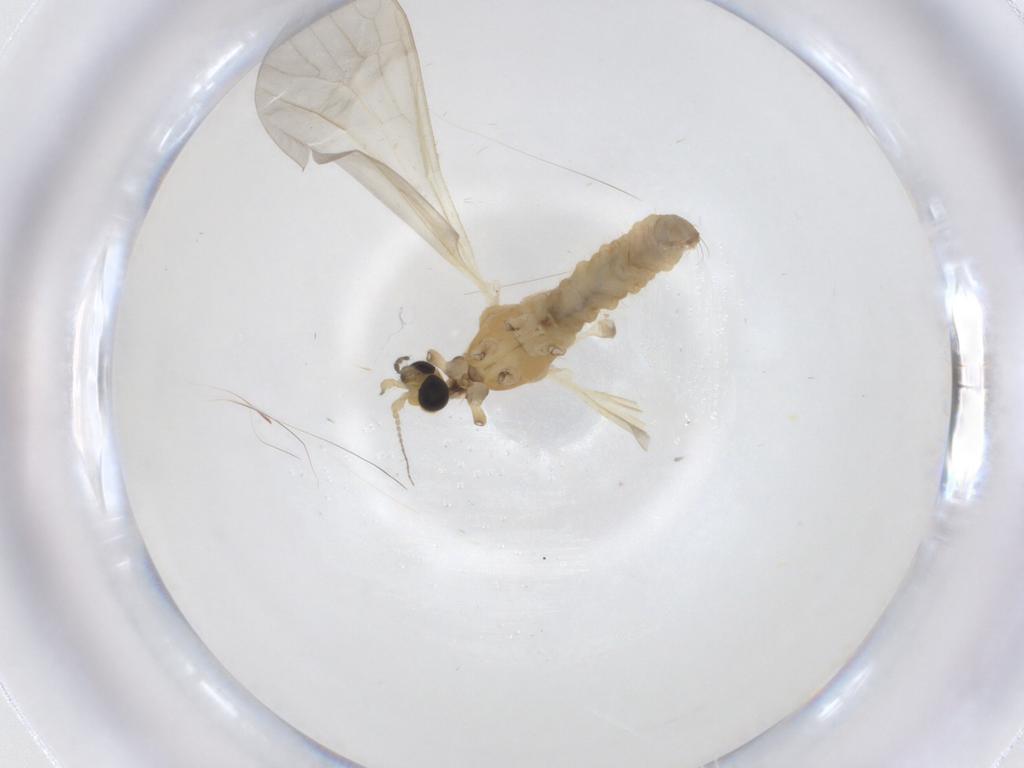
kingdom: Animalia
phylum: Arthropoda
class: Insecta
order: Diptera
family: Limoniidae
